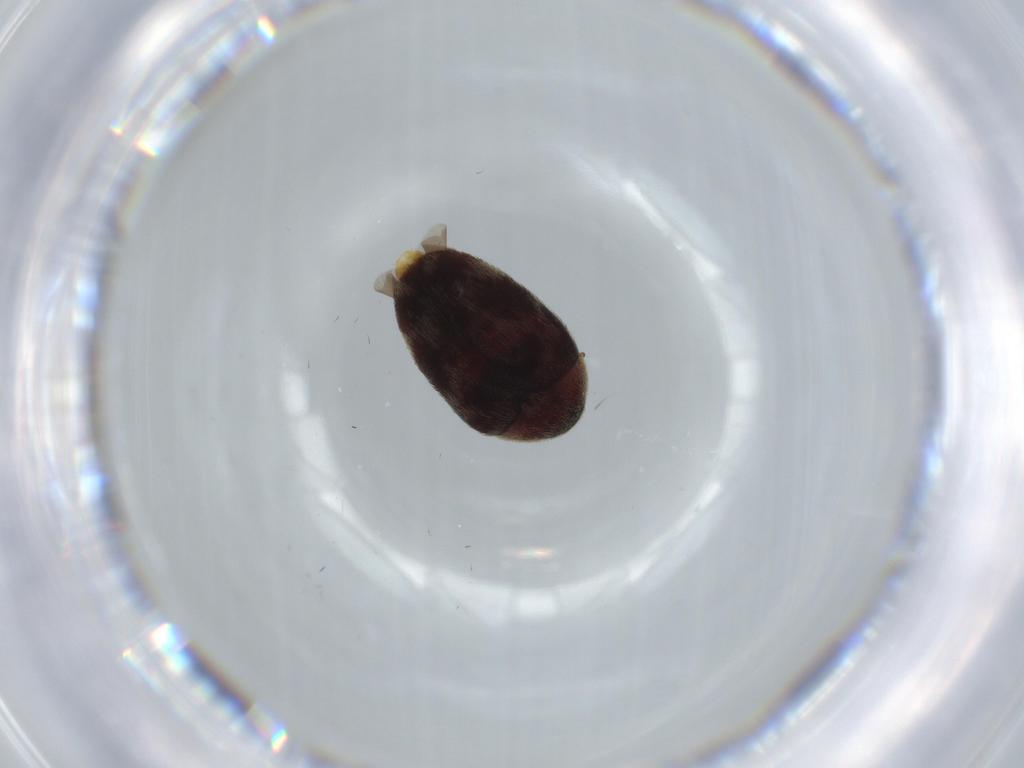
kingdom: Animalia
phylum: Arthropoda
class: Insecta
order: Coleoptera
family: Dermestidae
